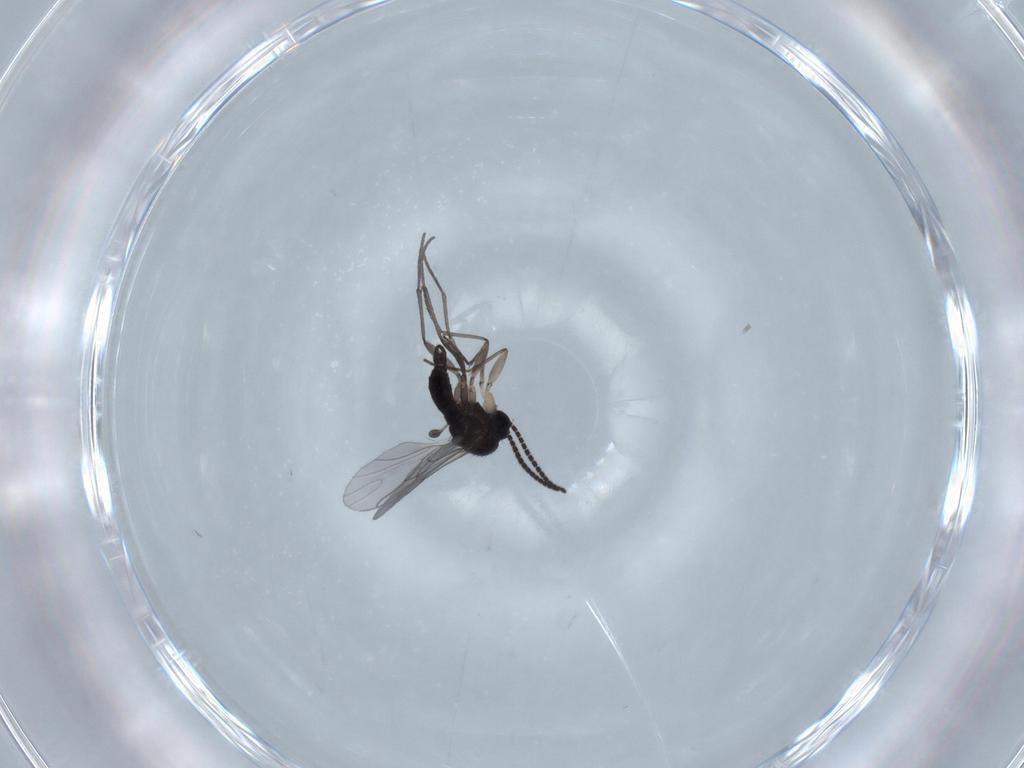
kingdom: Animalia
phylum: Arthropoda
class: Insecta
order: Diptera
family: Sciaridae
